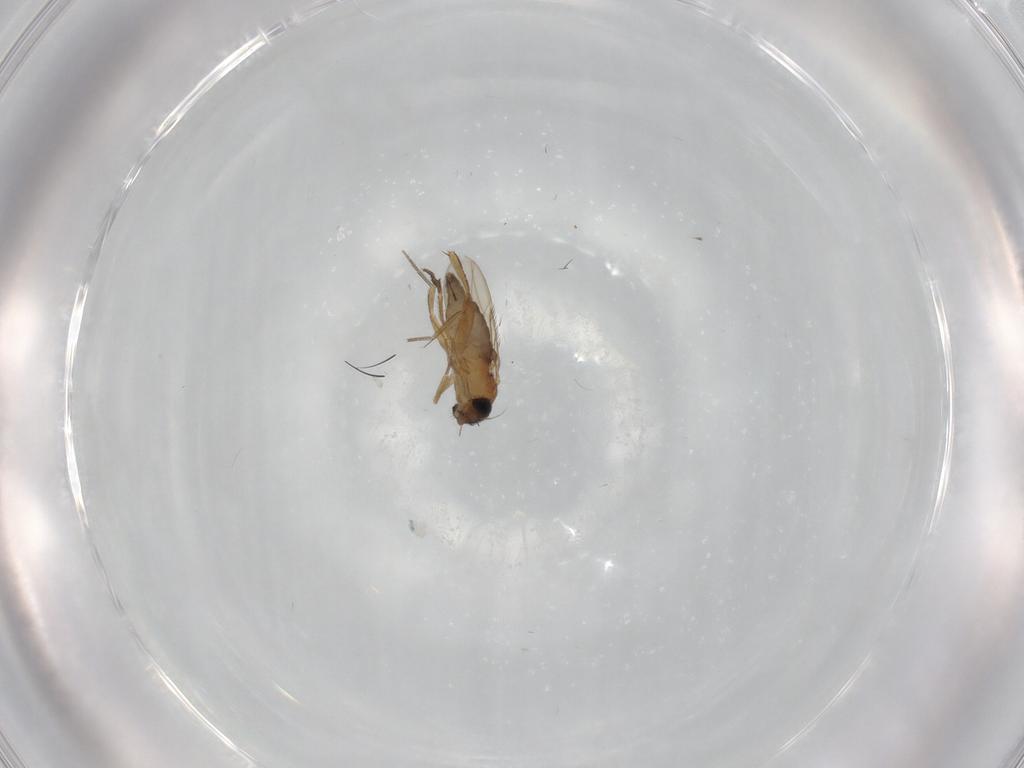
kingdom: Animalia
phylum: Arthropoda
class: Insecta
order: Diptera
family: Phoridae
